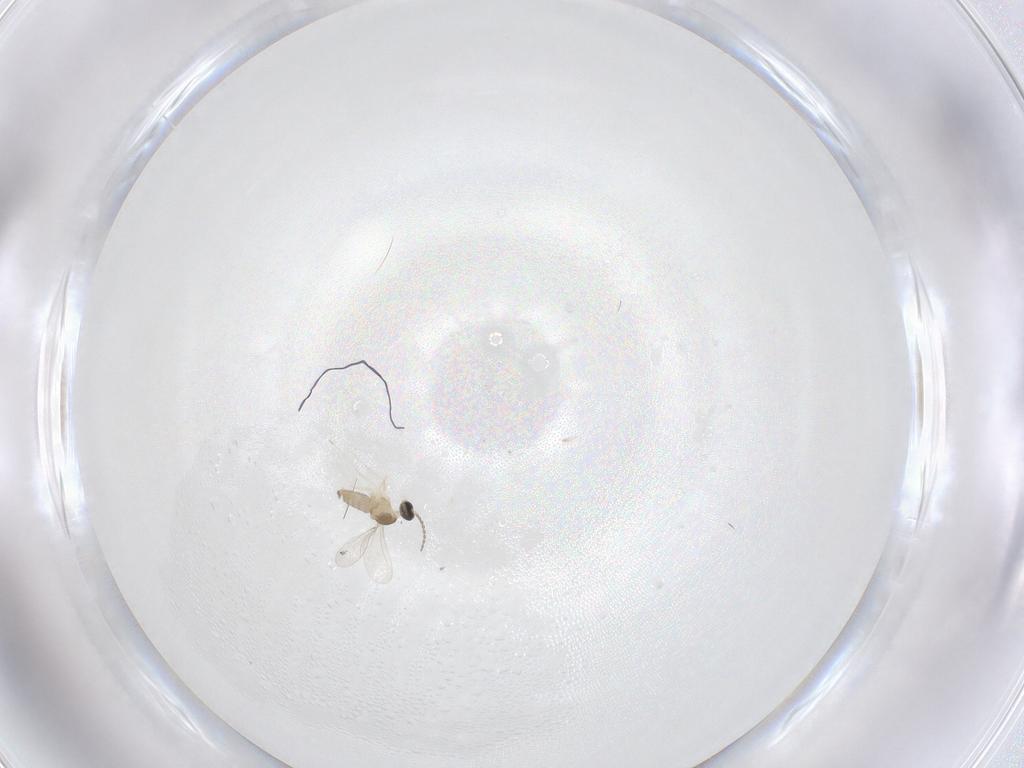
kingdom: Animalia
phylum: Arthropoda
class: Insecta
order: Diptera
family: Cecidomyiidae
